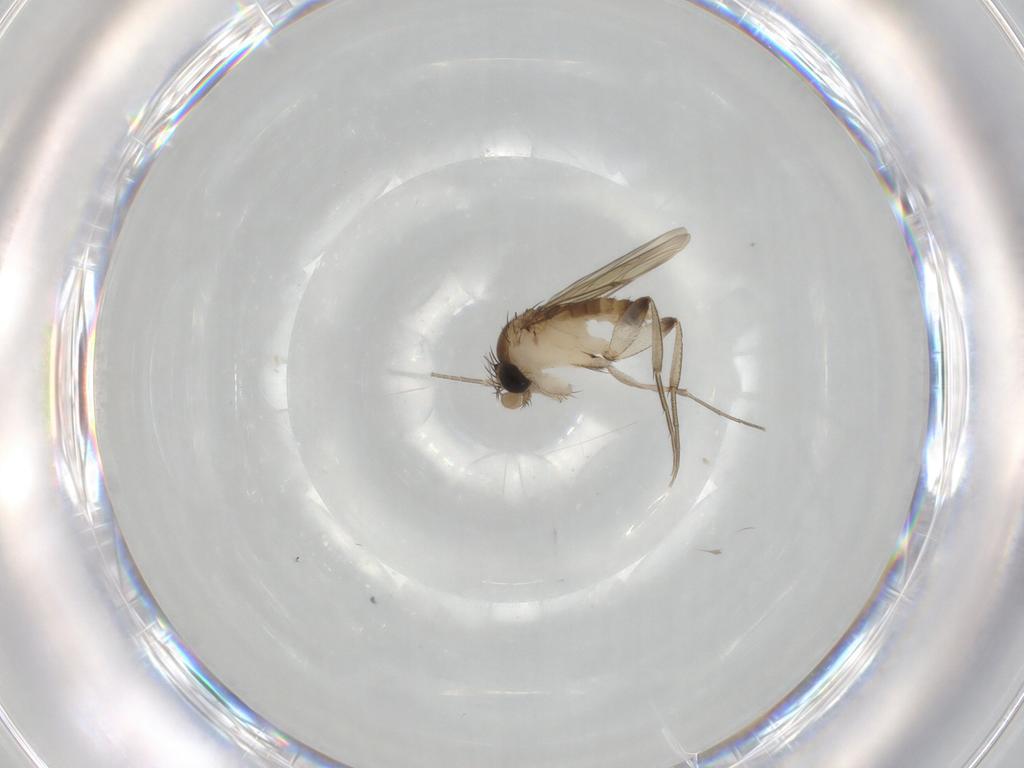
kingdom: Animalia
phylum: Arthropoda
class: Insecta
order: Diptera
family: Phoridae
